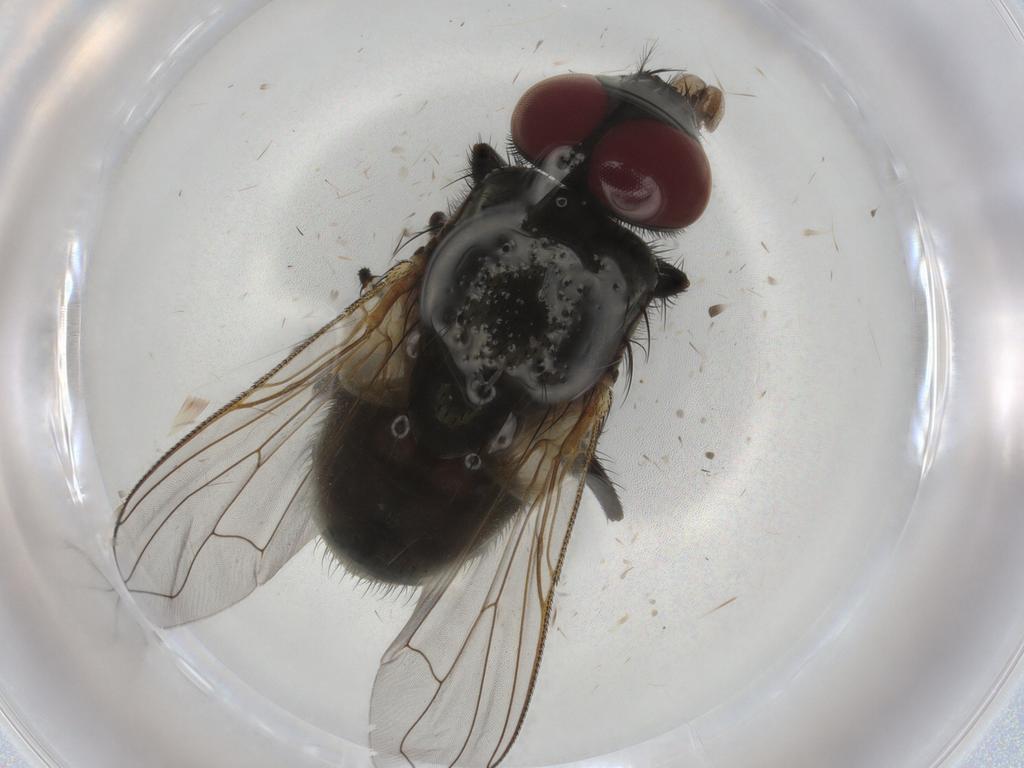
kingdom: Animalia
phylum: Arthropoda
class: Insecta
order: Diptera
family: Muscidae
